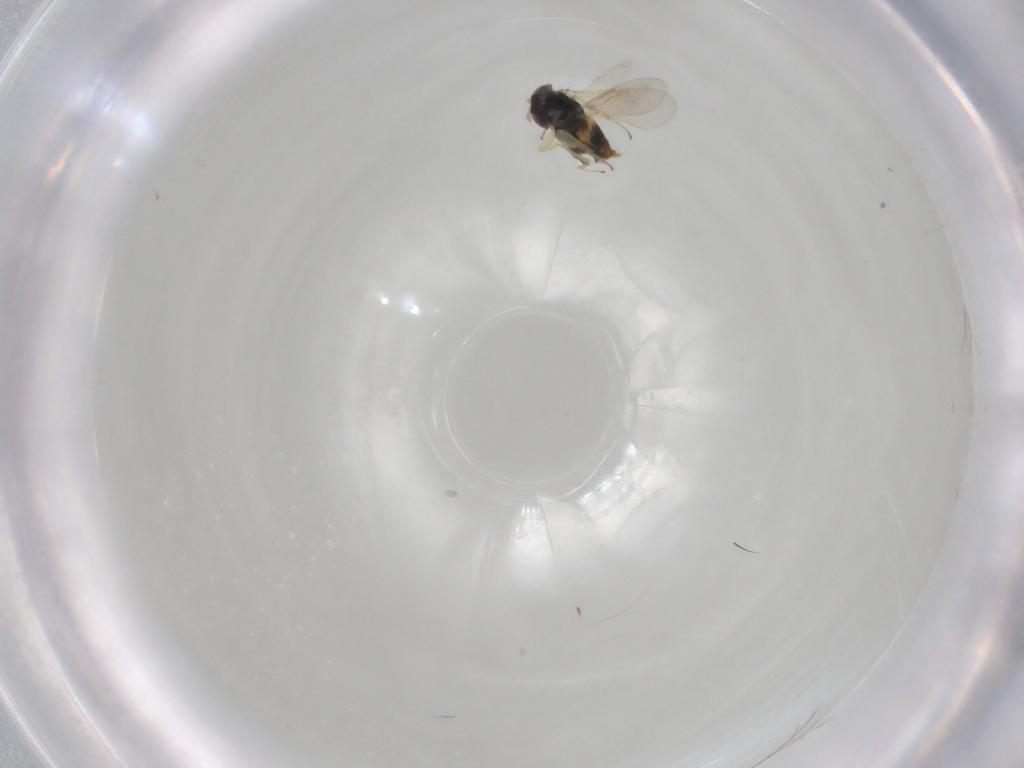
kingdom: Animalia
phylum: Arthropoda
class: Insecta
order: Hymenoptera
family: Aphelinidae
